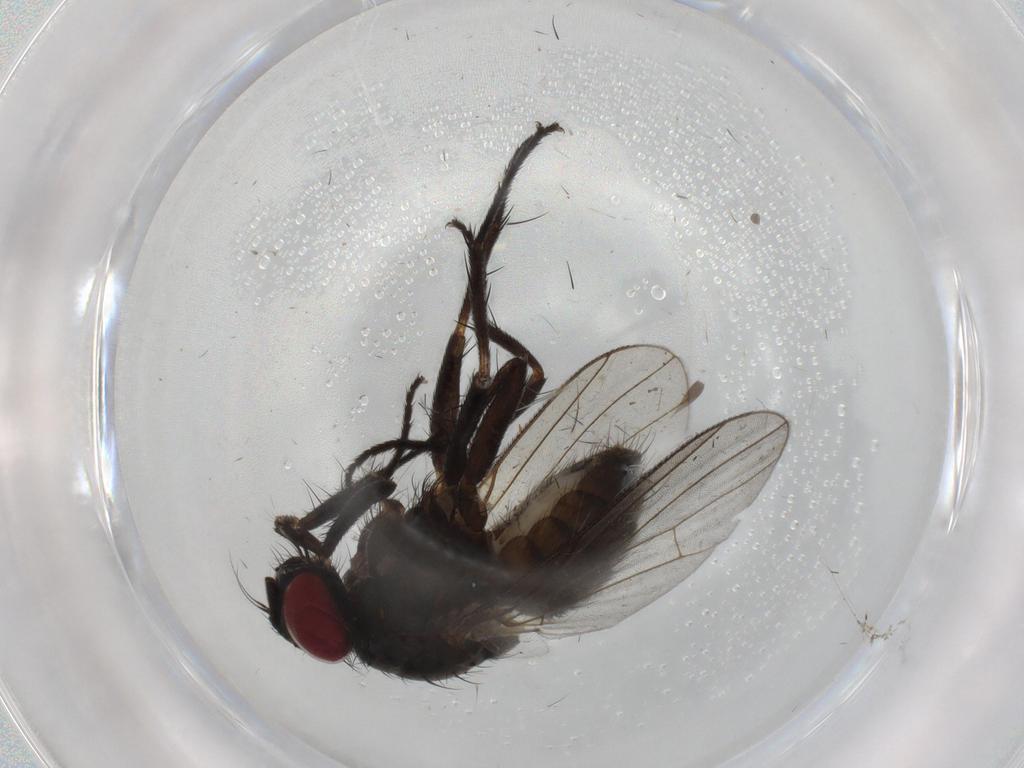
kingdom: Animalia
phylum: Arthropoda
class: Insecta
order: Diptera
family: Muscidae
